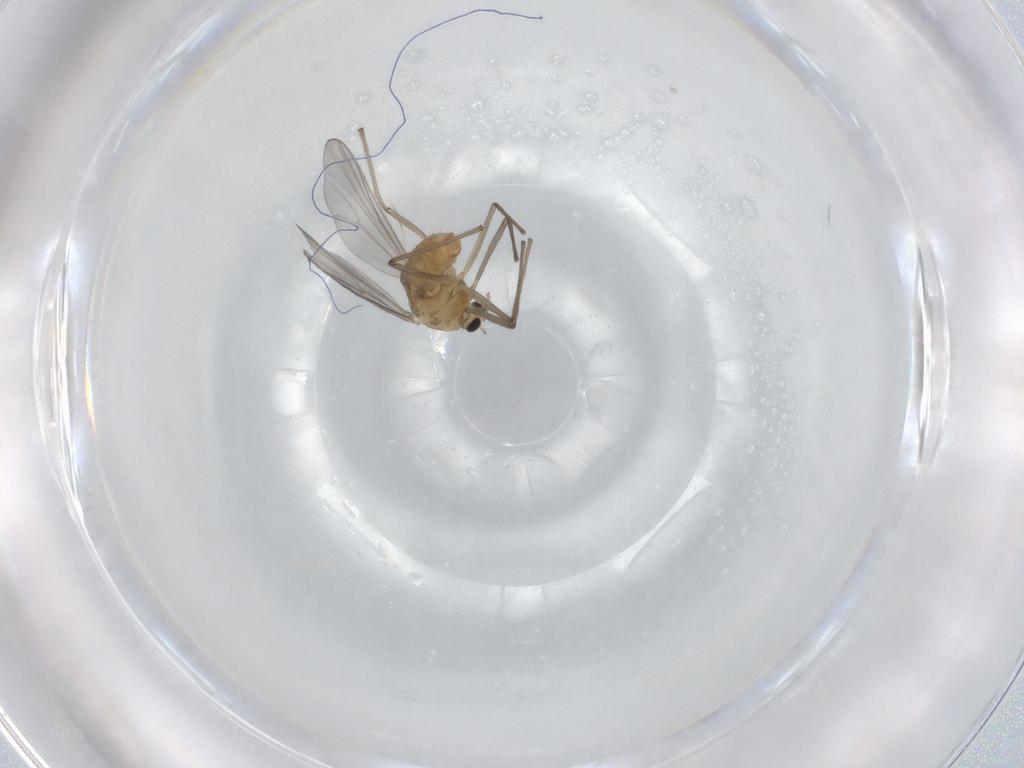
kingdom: Animalia
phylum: Arthropoda
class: Insecta
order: Diptera
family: Chironomidae
